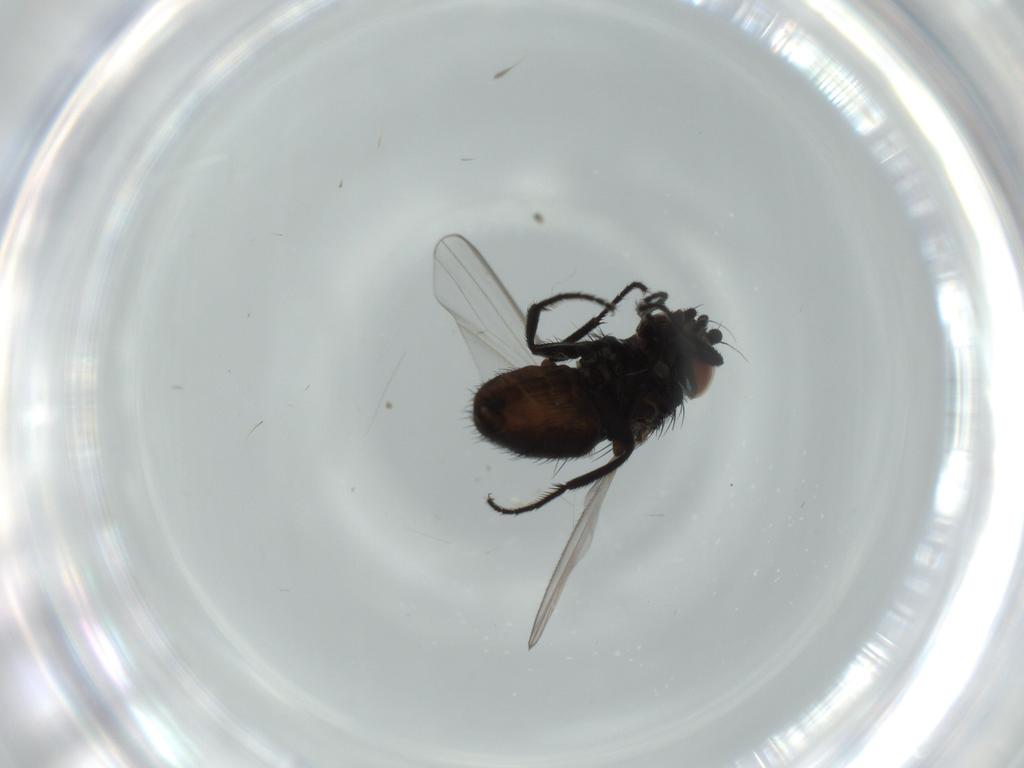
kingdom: Animalia
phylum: Arthropoda
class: Insecta
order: Diptera
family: Milichiidae
